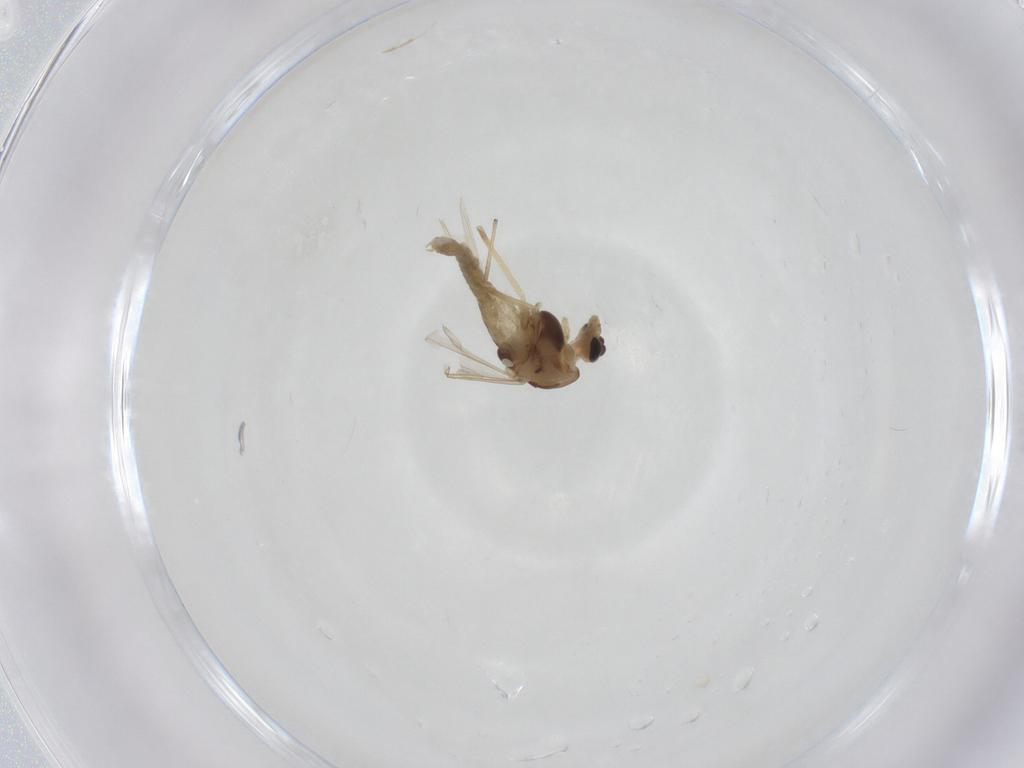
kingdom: Animalia
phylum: Arthropoda
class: Insecta
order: Diptera
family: Chironomidae
